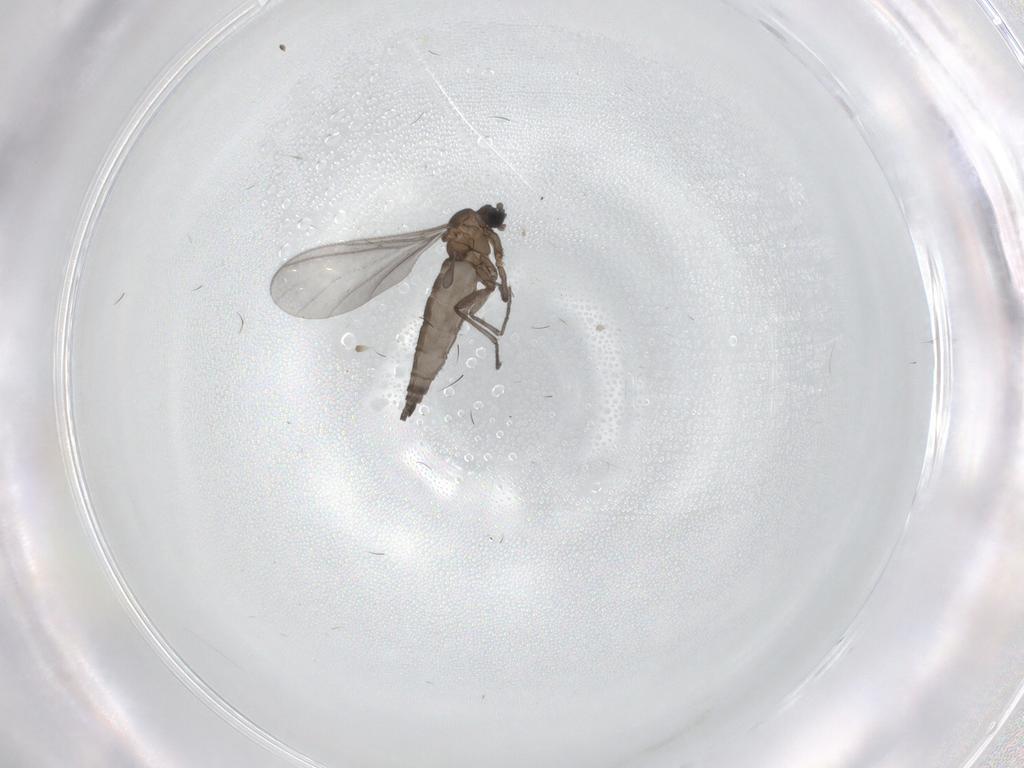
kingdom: Animalia
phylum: Arthropoda
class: Insecta
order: Diptera
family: Sciaridae
